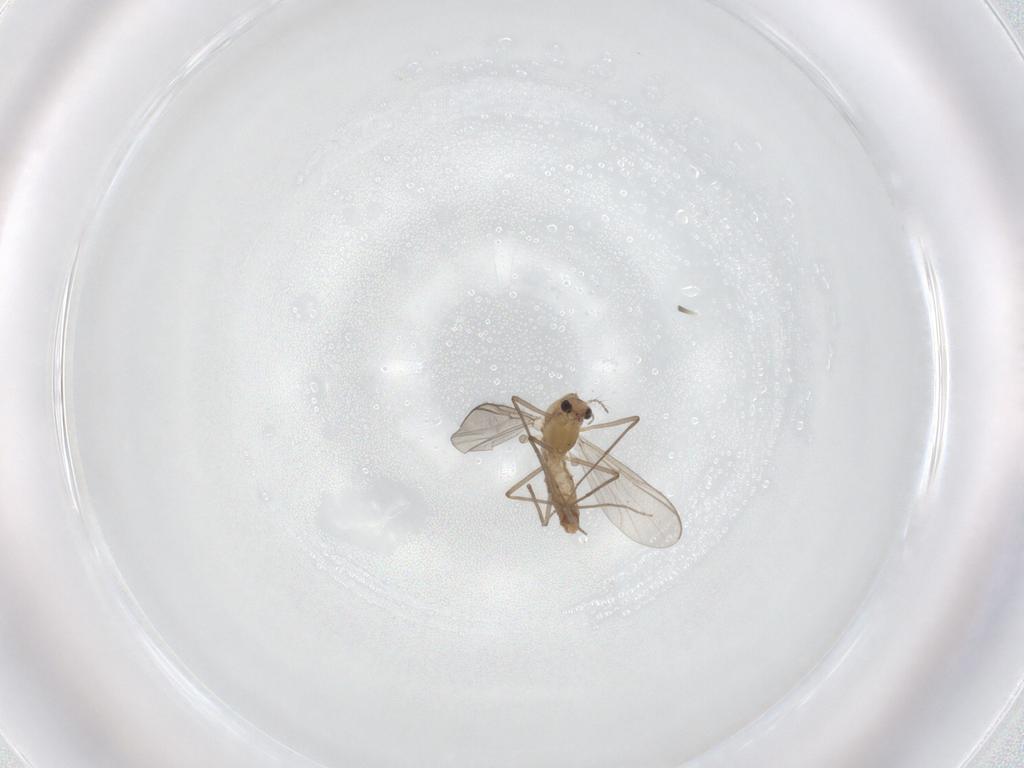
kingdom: Animalia
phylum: Arthropoda
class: Insecta
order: Diptera
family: Chironomidae
